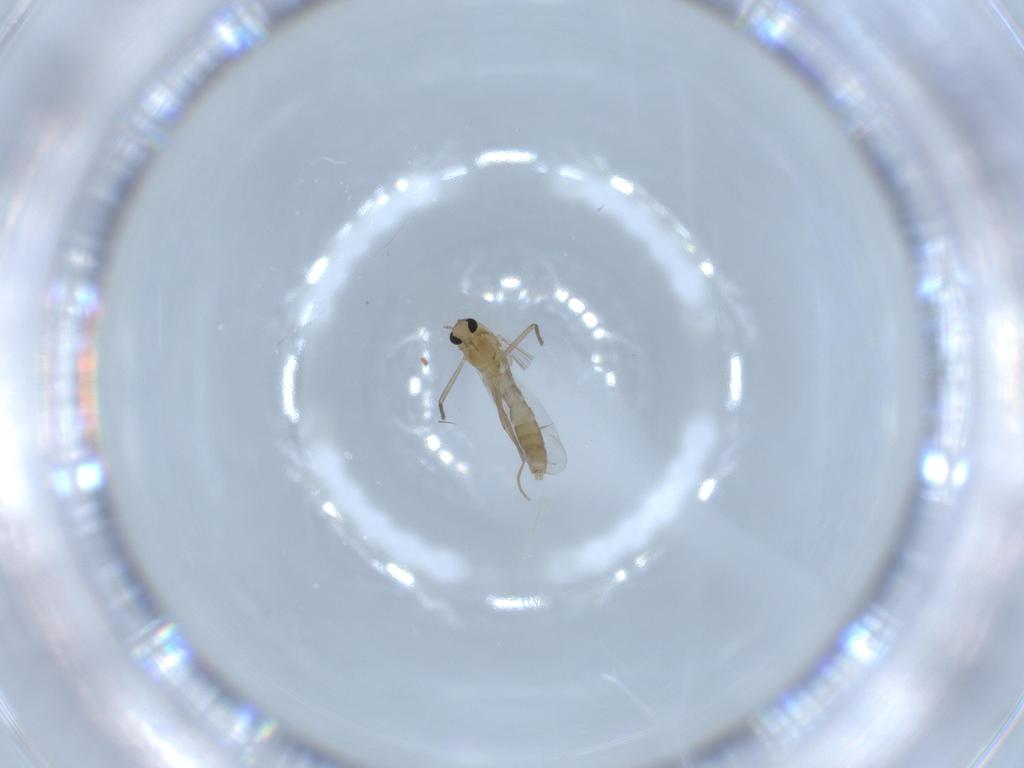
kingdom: Animalia
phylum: Arthropoda
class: Insecta
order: Diptera
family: Chironomidae
